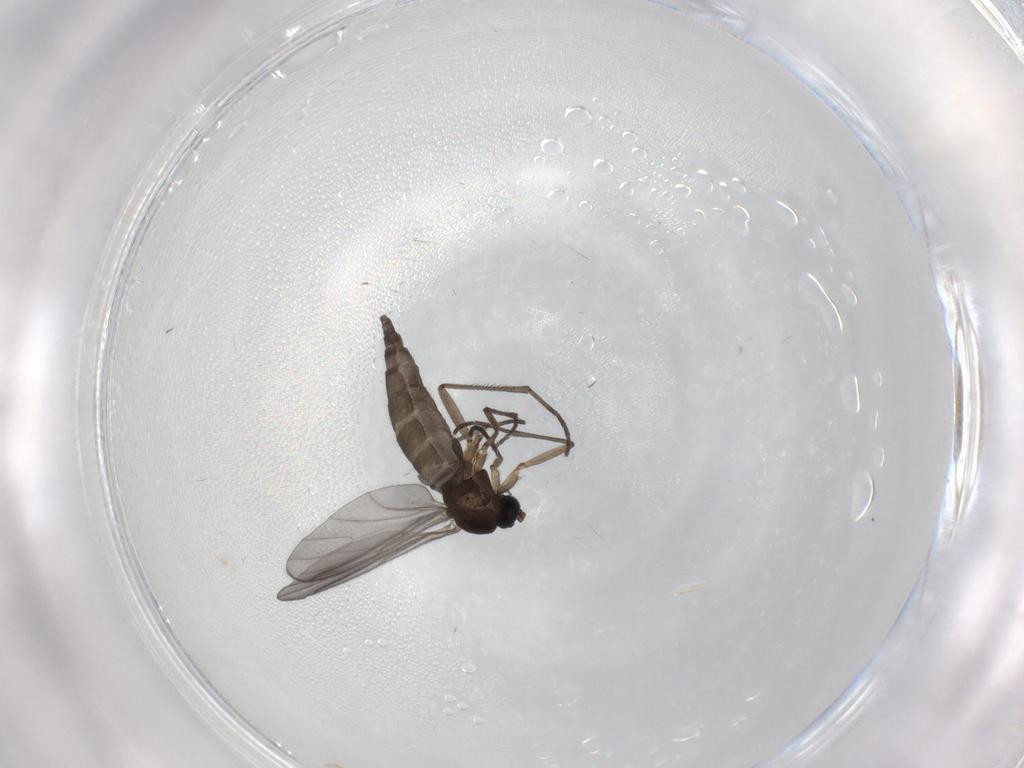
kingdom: Animalia
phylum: Arthropoda
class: Insecta
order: Diptera
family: Sciaridae
